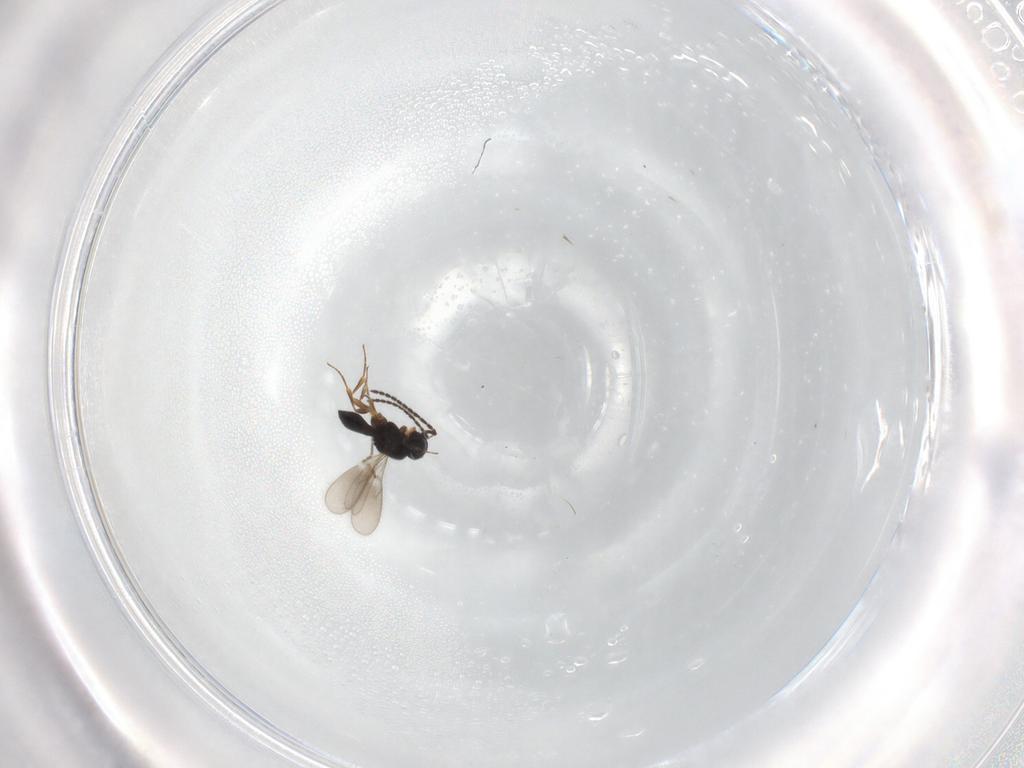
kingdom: Animalia
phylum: Arthropoda
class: Insecta
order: Hymenoptera
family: Scelionidae
